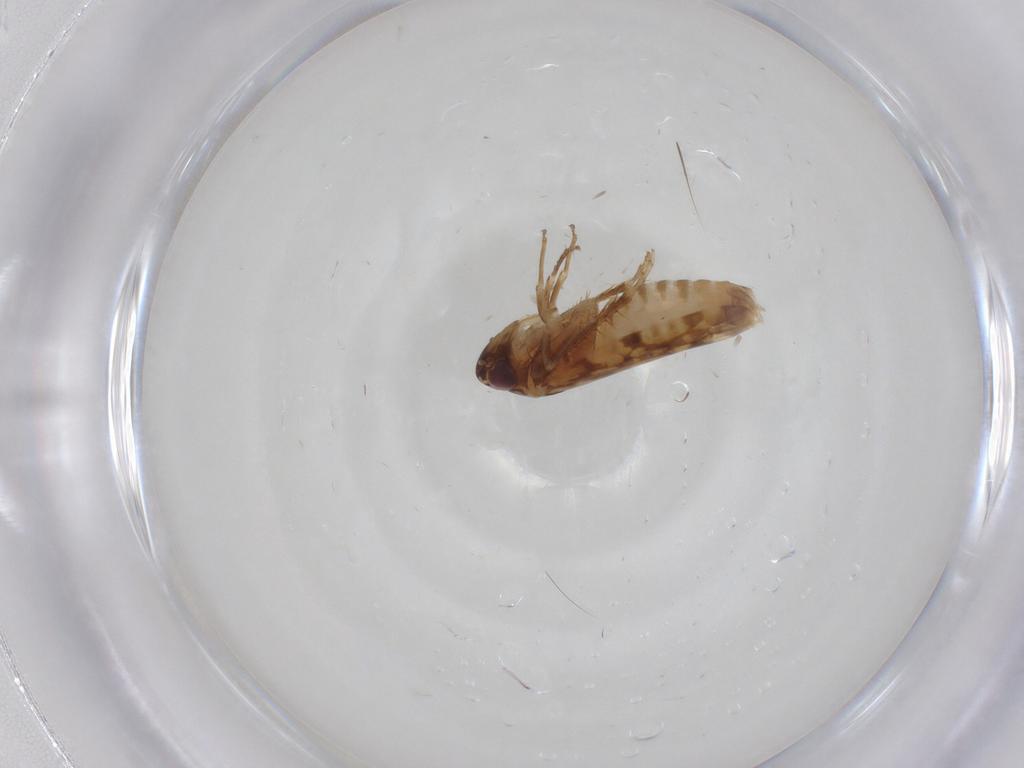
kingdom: Animalia
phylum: Arthropoda
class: Insecta
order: Hemiptera
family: Cicadellidae
